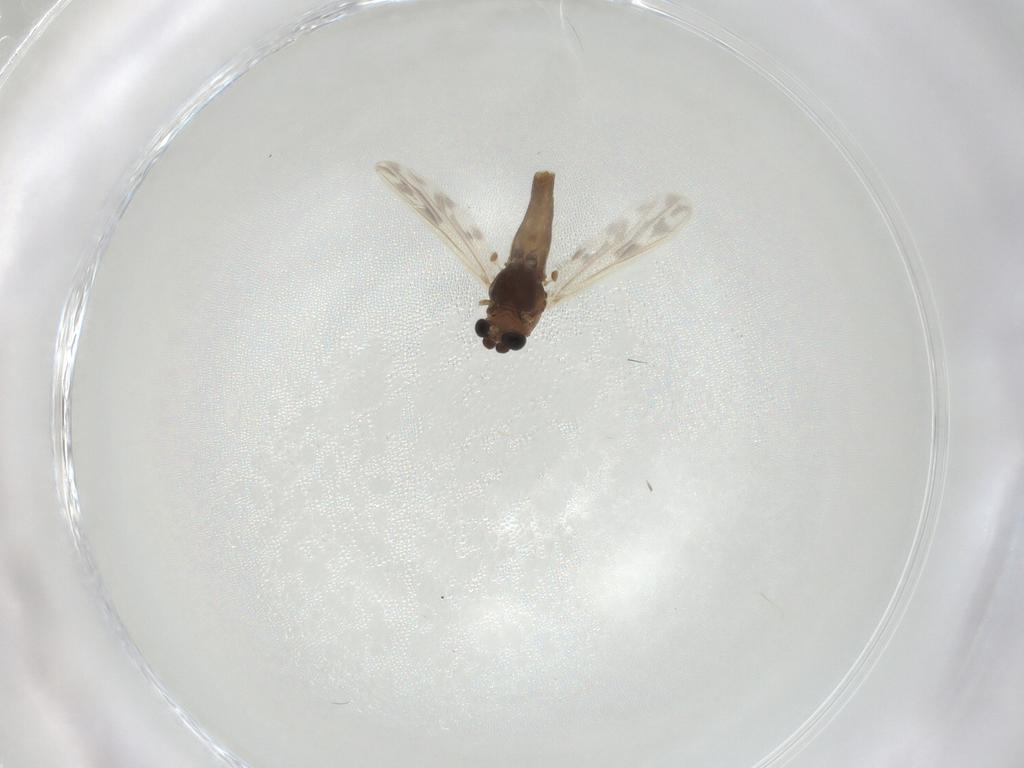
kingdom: Animalia
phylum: Arthropoda
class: Insecta
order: Diptera
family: Chironomidae
